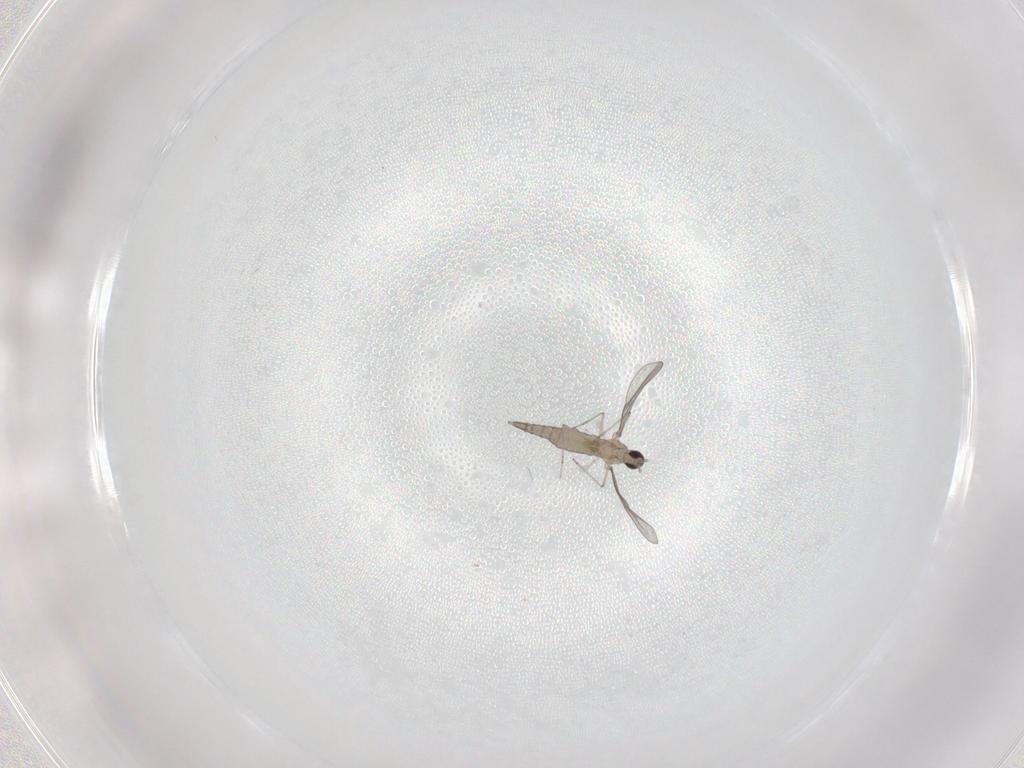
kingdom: Animalia
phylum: Arthropoda
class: Insecta
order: Diptera
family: Cecidomyiidae
